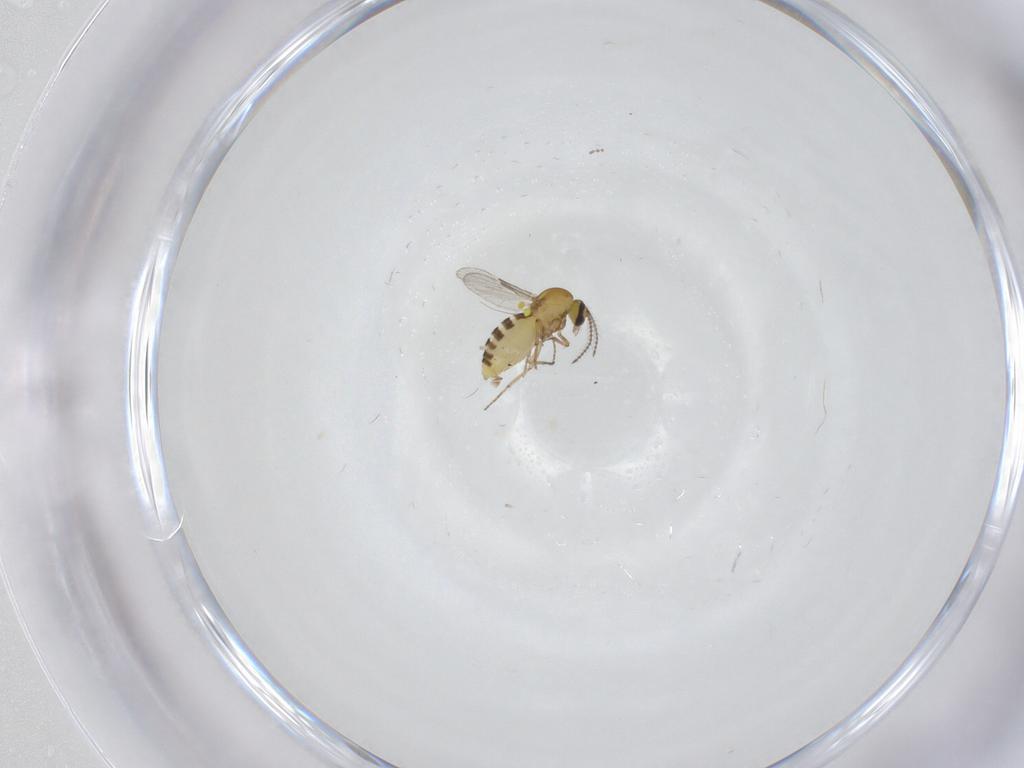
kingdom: Animalia
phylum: Arthropoda
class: Insecta
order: Diptera
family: Ceratopogonidae
